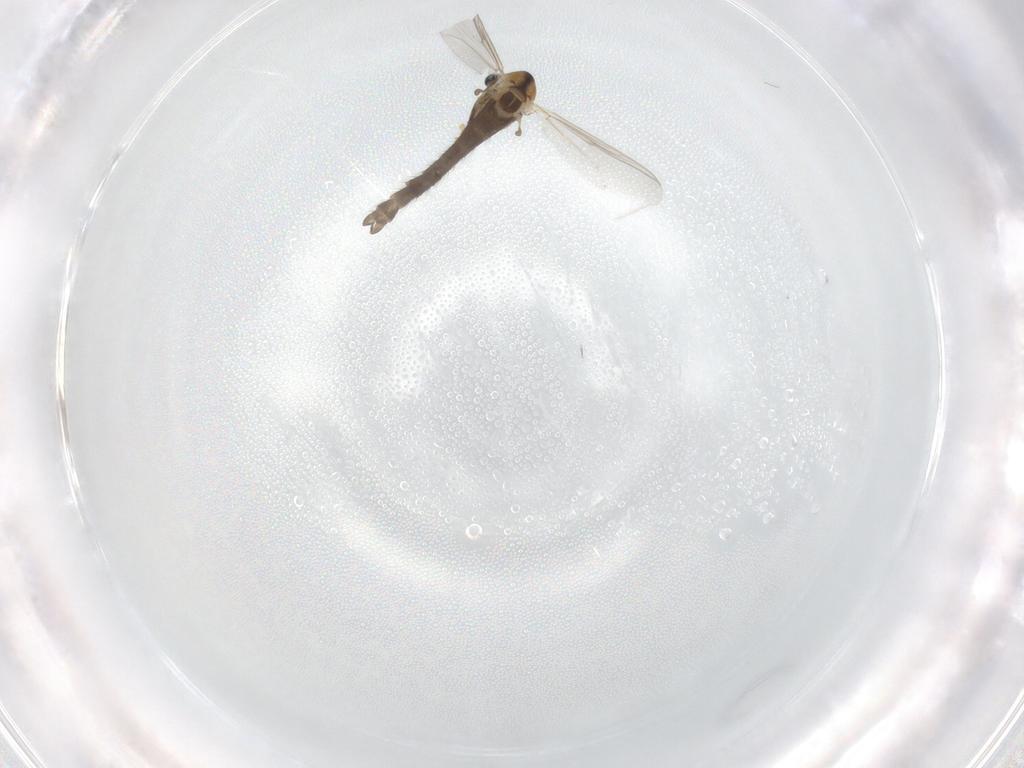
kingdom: Animalia
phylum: Arthropoda
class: Insecta
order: Diptera
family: Chironomidae
